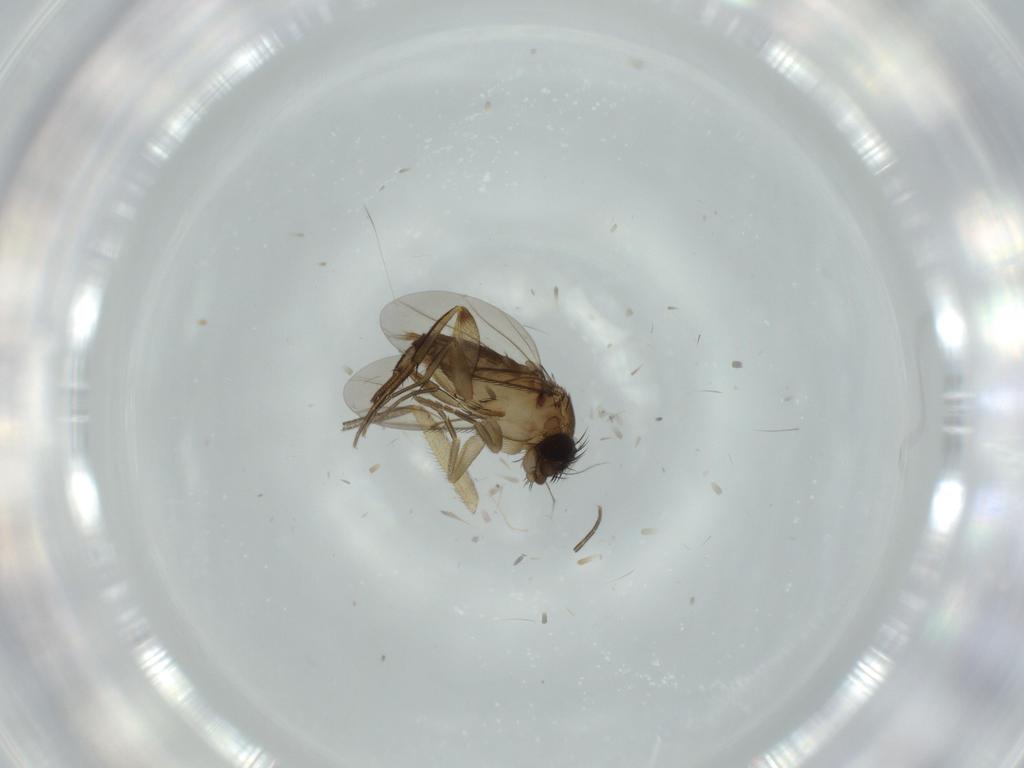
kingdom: Animalia
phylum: Arthropoda
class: Insecta
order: Diptera
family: Mycetophilidae
